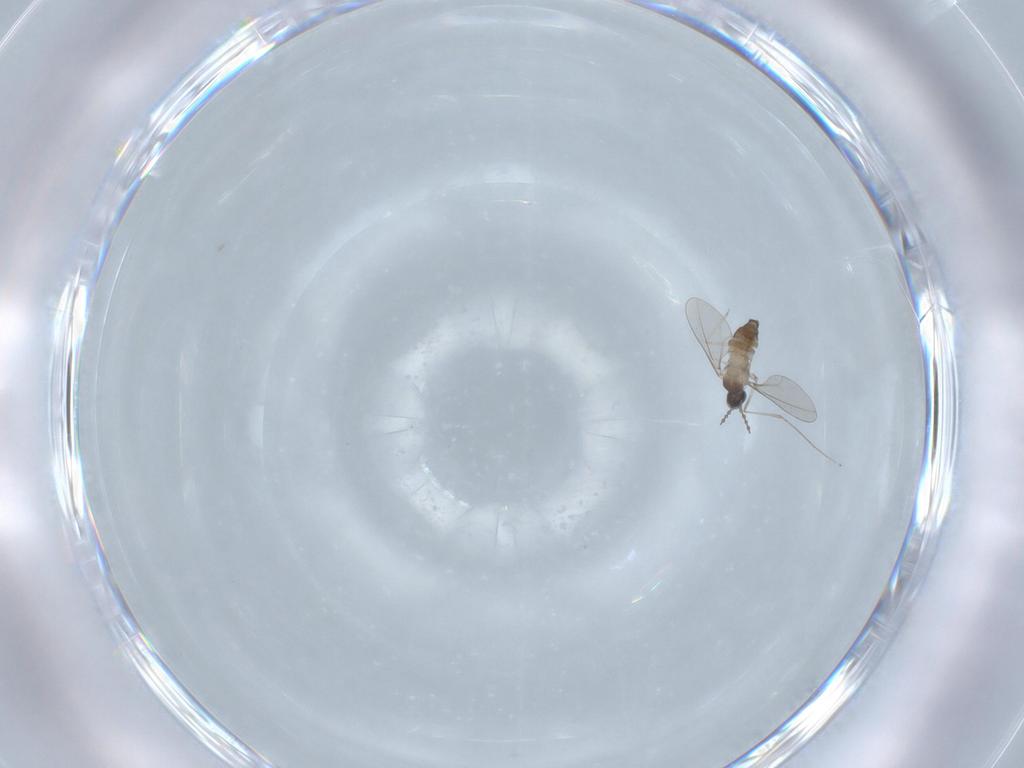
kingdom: Animalia
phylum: Arthropoda
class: Insecta
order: Diptera
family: Cecidomyiidae
